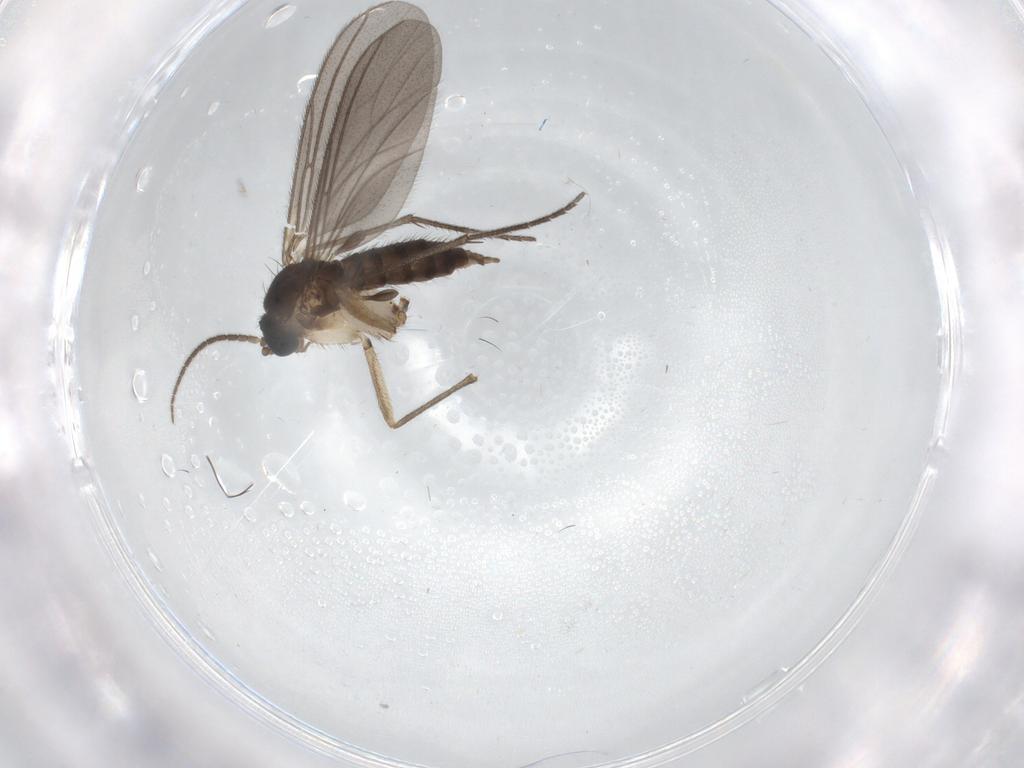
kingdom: Animalia
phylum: Arthropoda
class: Insecta
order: Diptera
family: Sciaridae
